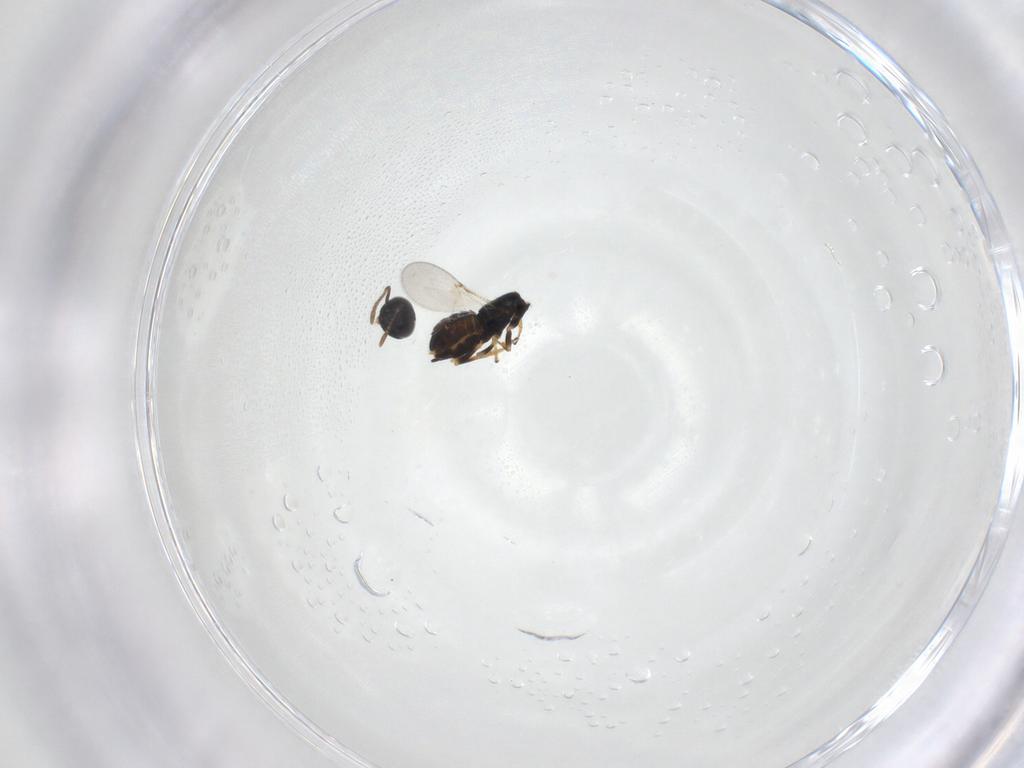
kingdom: Animalia
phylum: Arthropoda
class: Insecta
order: Hymenoptera
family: Encyrtidae
